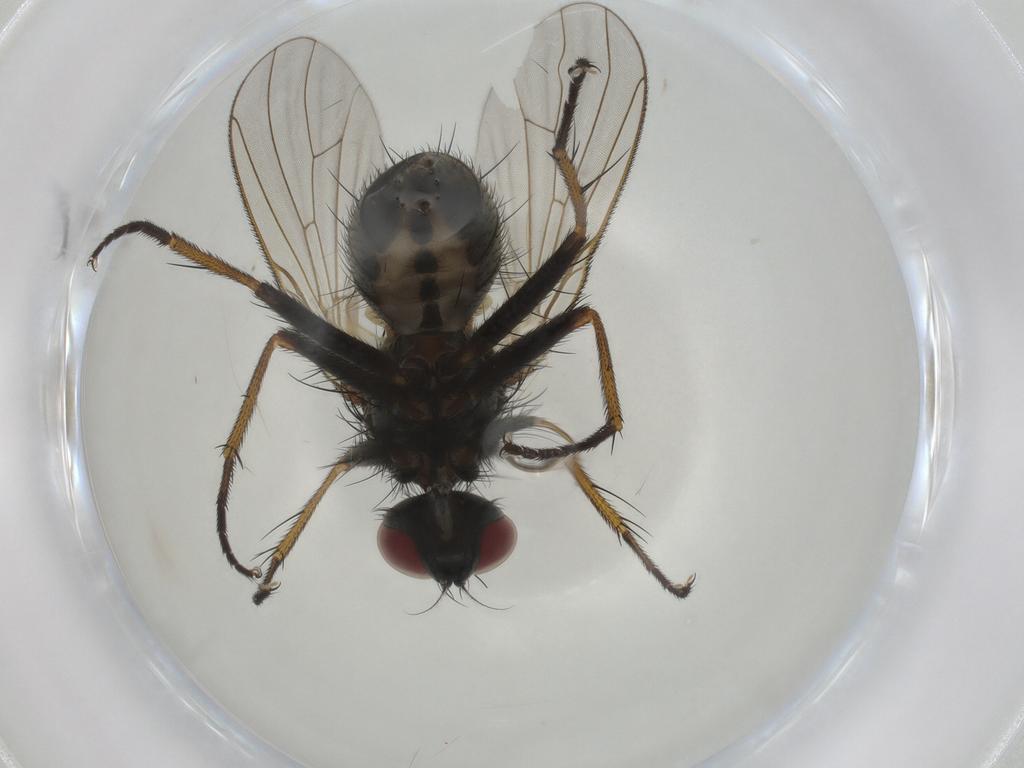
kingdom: Animalia
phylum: Arthropoda
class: Insecta
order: Diptera
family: Muscidae
